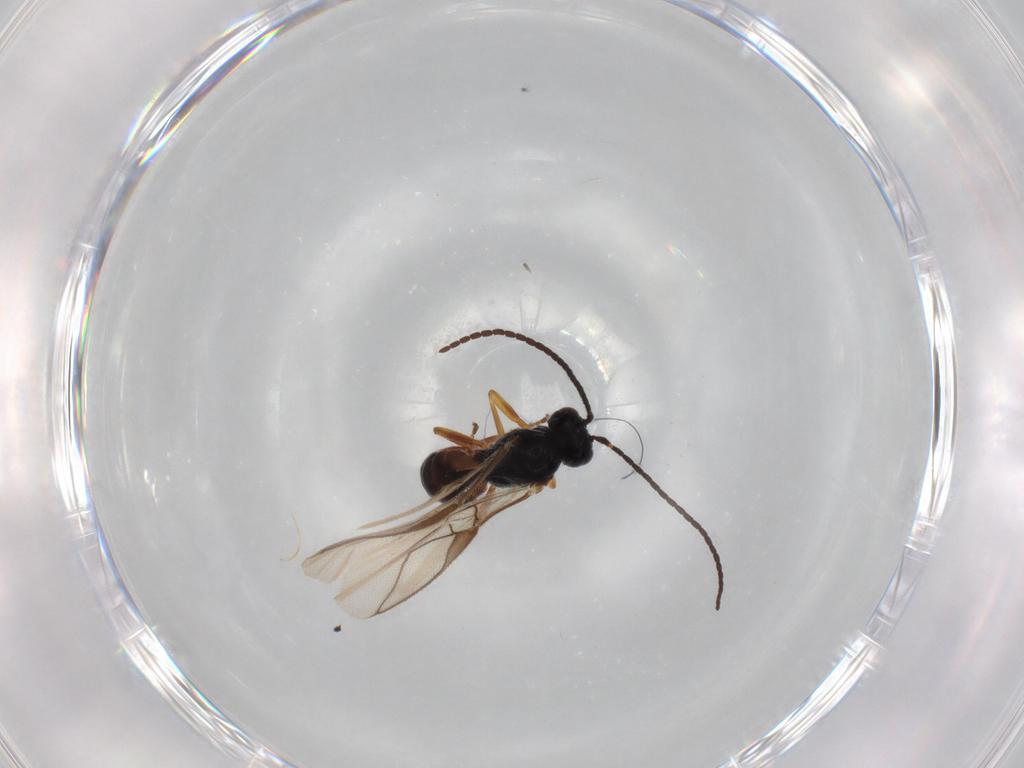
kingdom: Animalia
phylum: Arthropoda
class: Insecta
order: Hymenoptera
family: Braconidae
